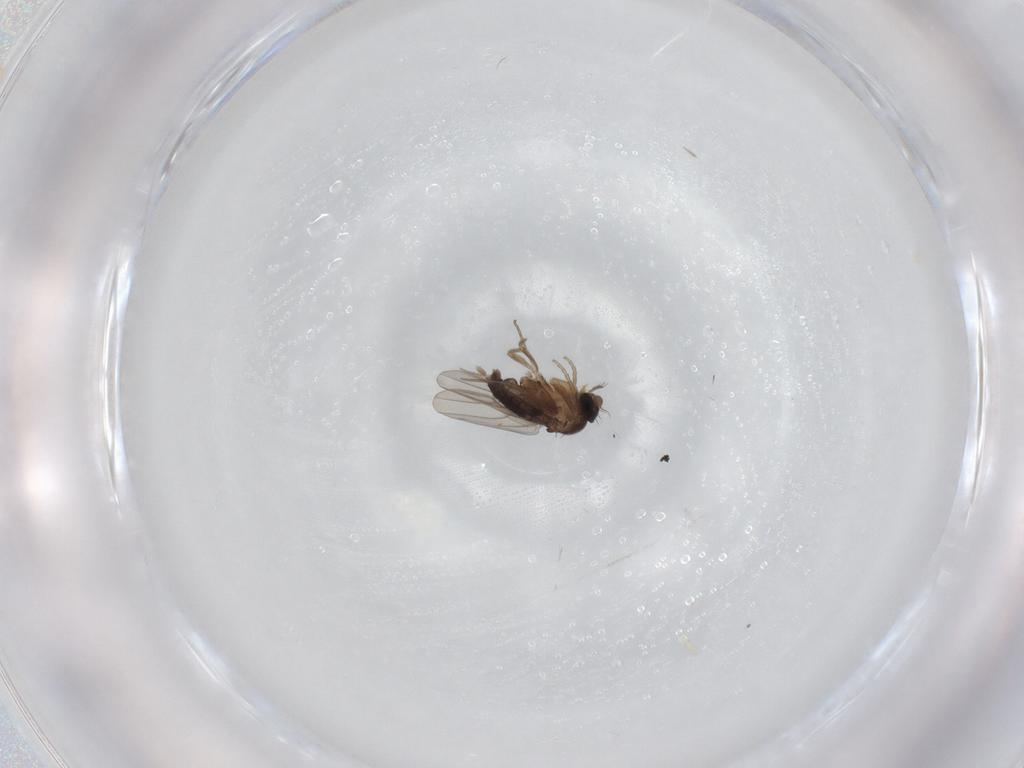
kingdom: Animalia
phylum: Arthropoda
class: Insecta
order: Diptera
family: Phoridae
